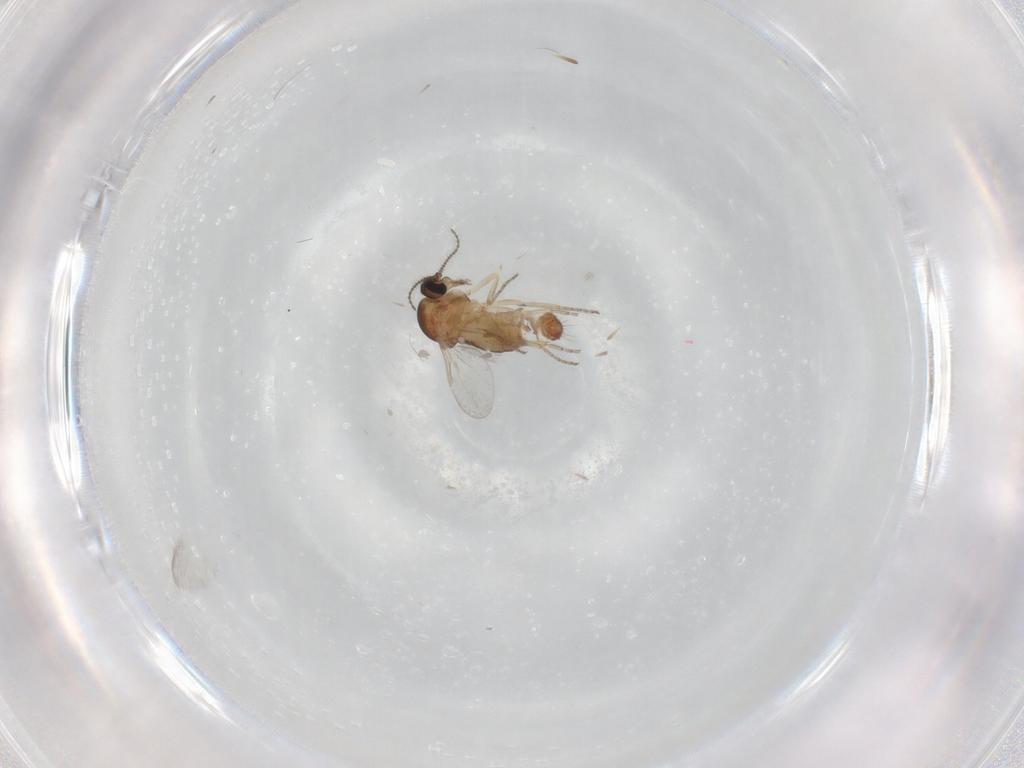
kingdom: Animalia
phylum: Arthropoda
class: Insecta
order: Diptera
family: Ceratopogonidae
